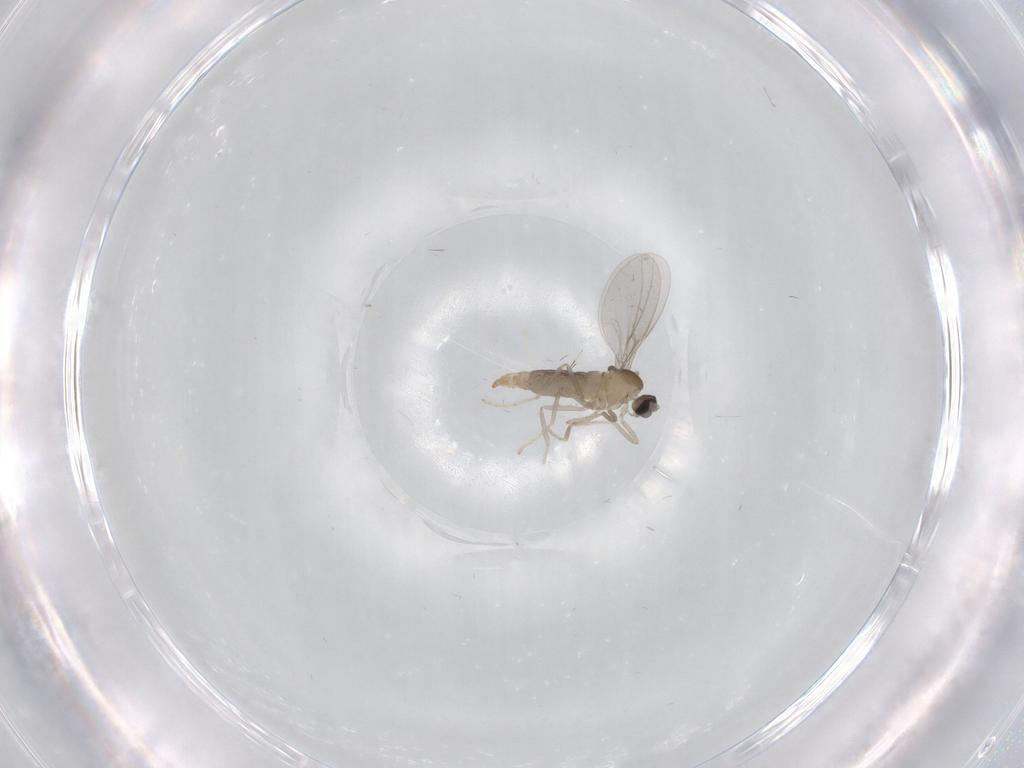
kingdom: Animalia
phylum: Arthropoda
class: Insecta
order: Diptera
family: Cecidomyiidae
